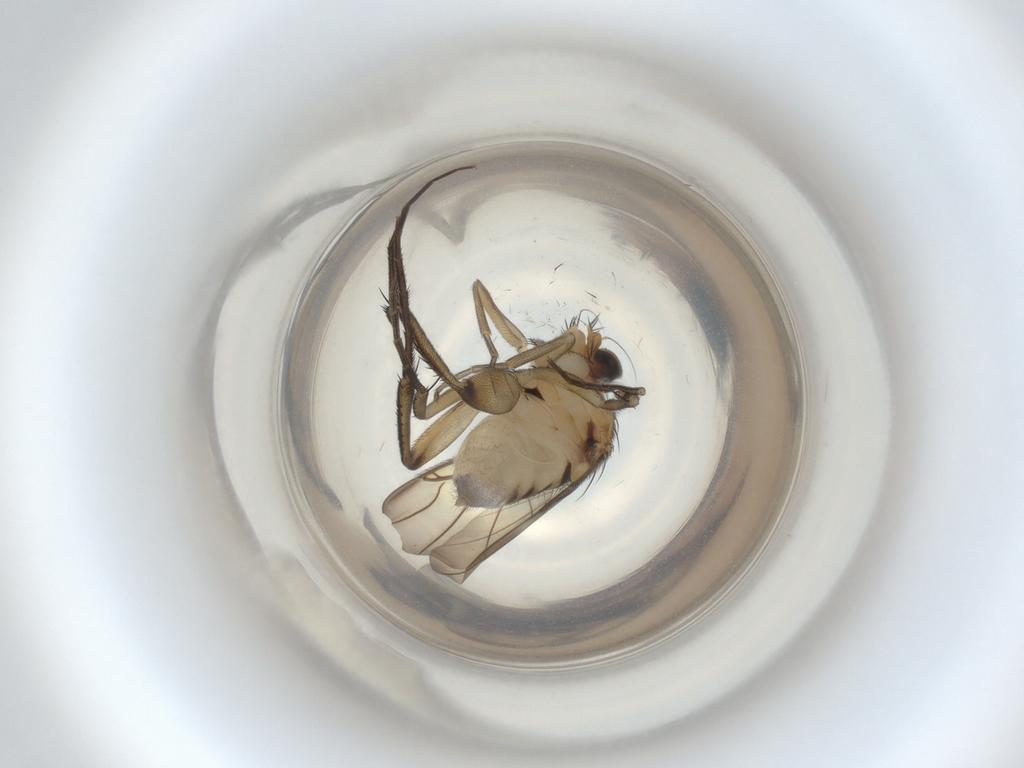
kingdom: Animalia
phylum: Arthropoda
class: Insecta
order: Diptera
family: Phoridae
